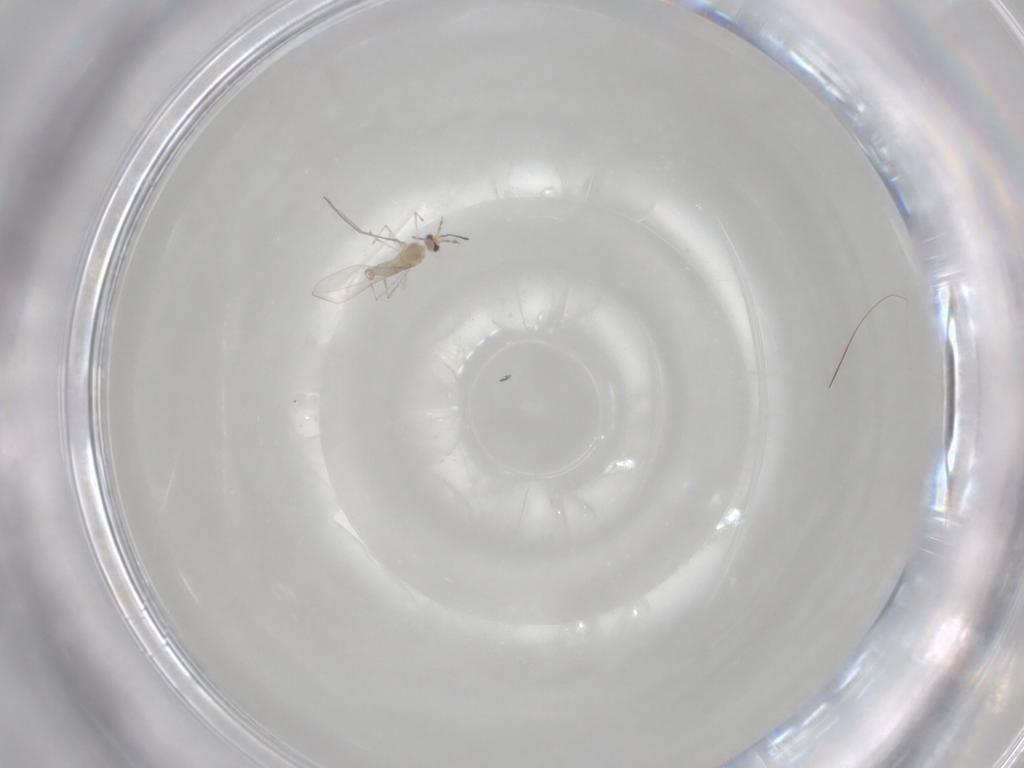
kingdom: Animalia
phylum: Arthropoda
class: Insecta
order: Diptera
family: Cecidomyiidae
